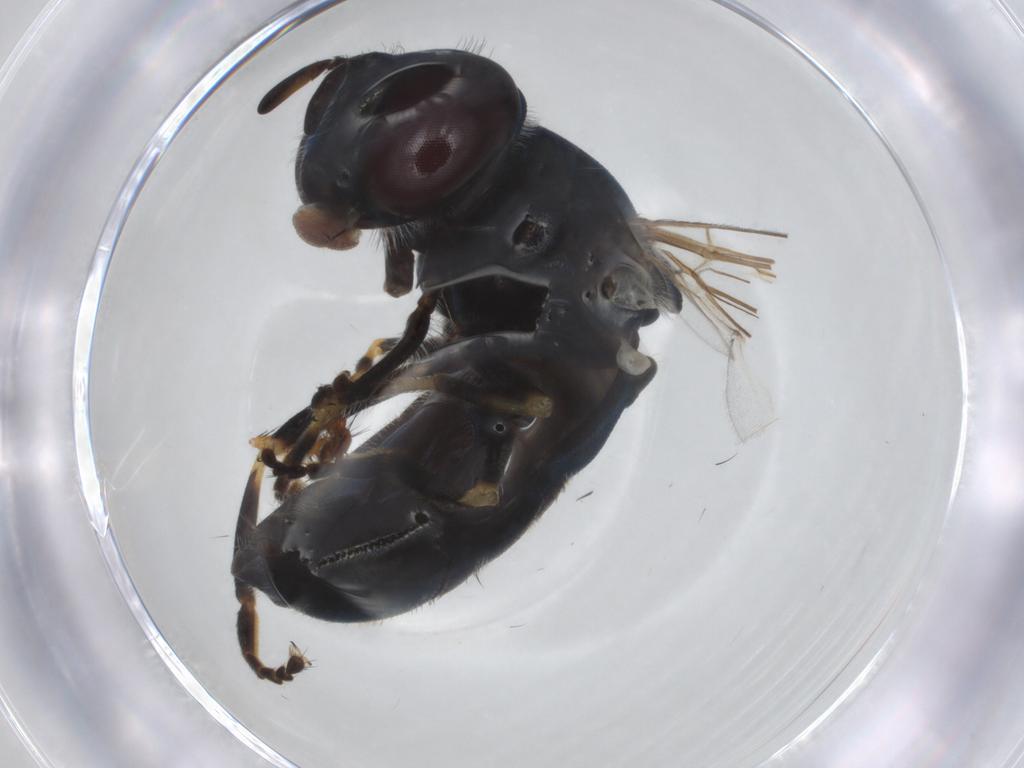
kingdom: Animalia
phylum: Arthropoda
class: Insecta
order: Diptera
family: Syrphidae
